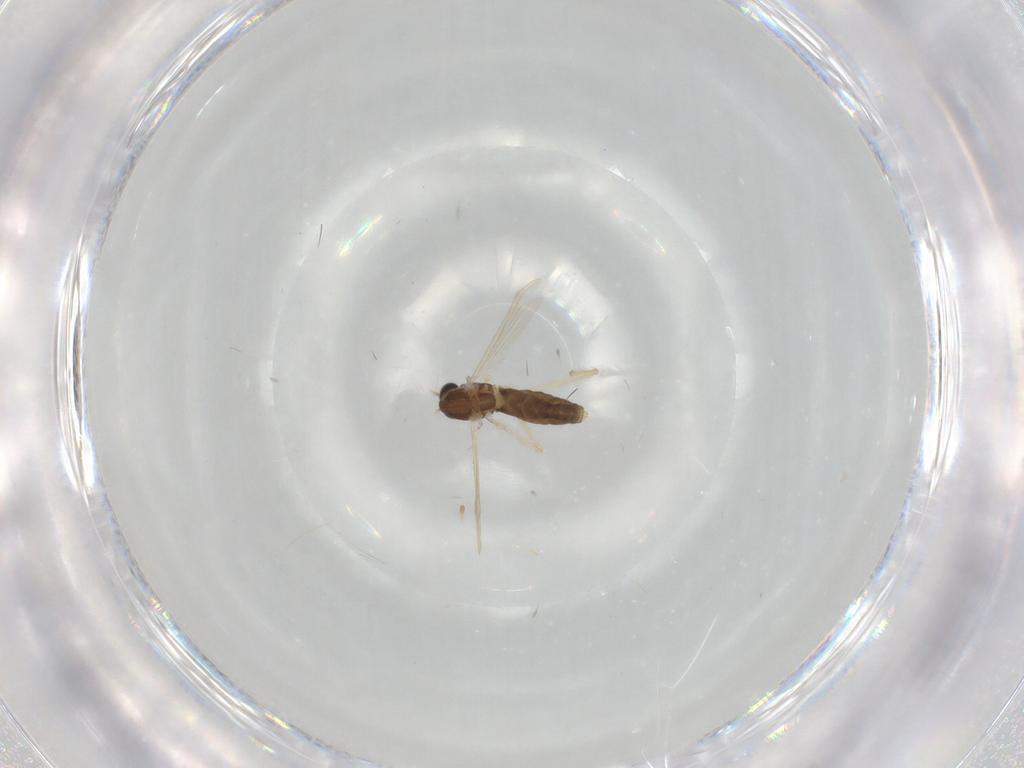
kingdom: Animalia
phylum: Arthropoda
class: Insecta
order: Diptera
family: Chironomidae
